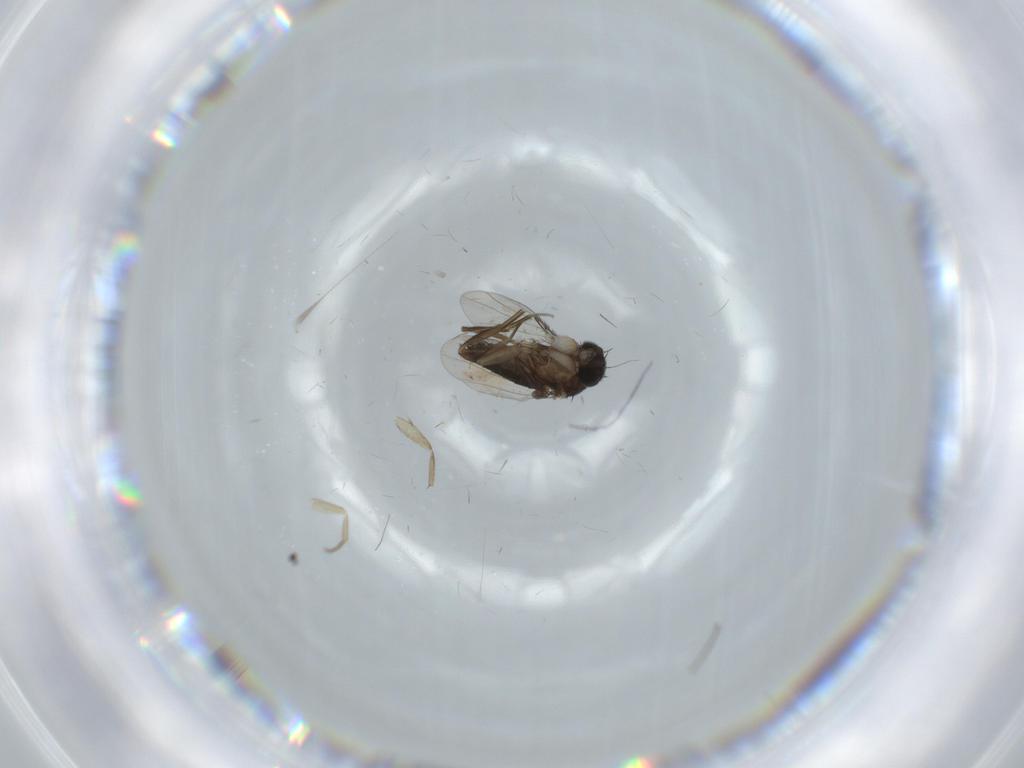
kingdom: Animalia
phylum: Arthropoda
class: Insecta
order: Diptera
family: Phoridae
